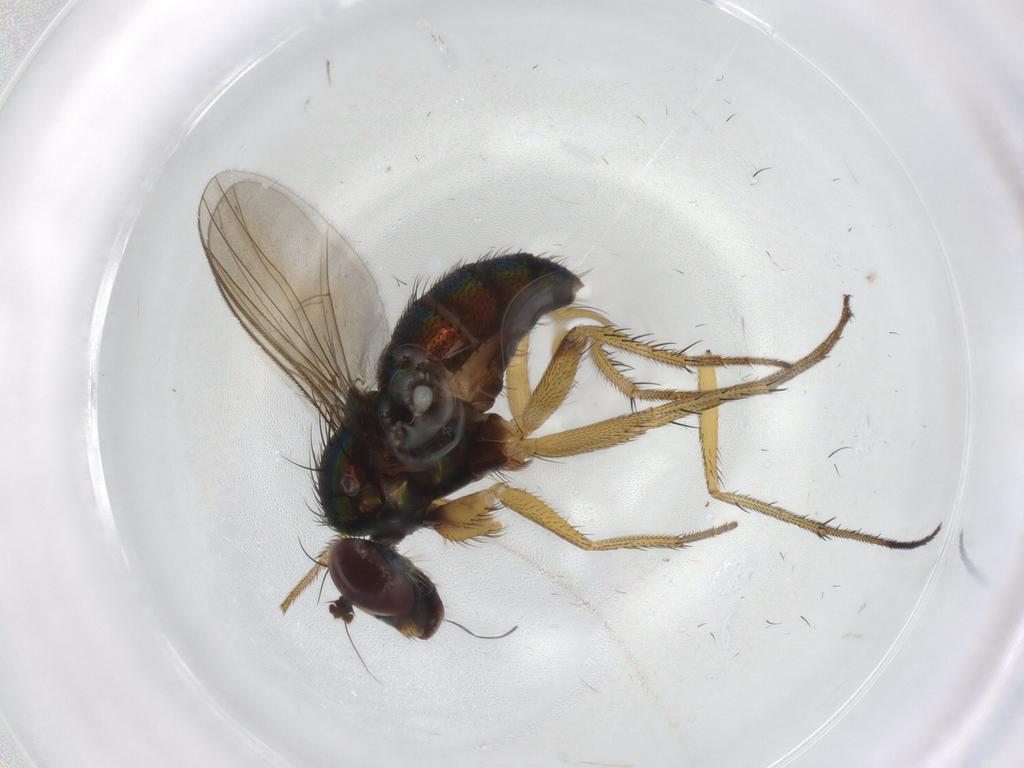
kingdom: Animalia
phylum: Arthropoda
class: Insecta
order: Diptera
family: Dolichopodidae
